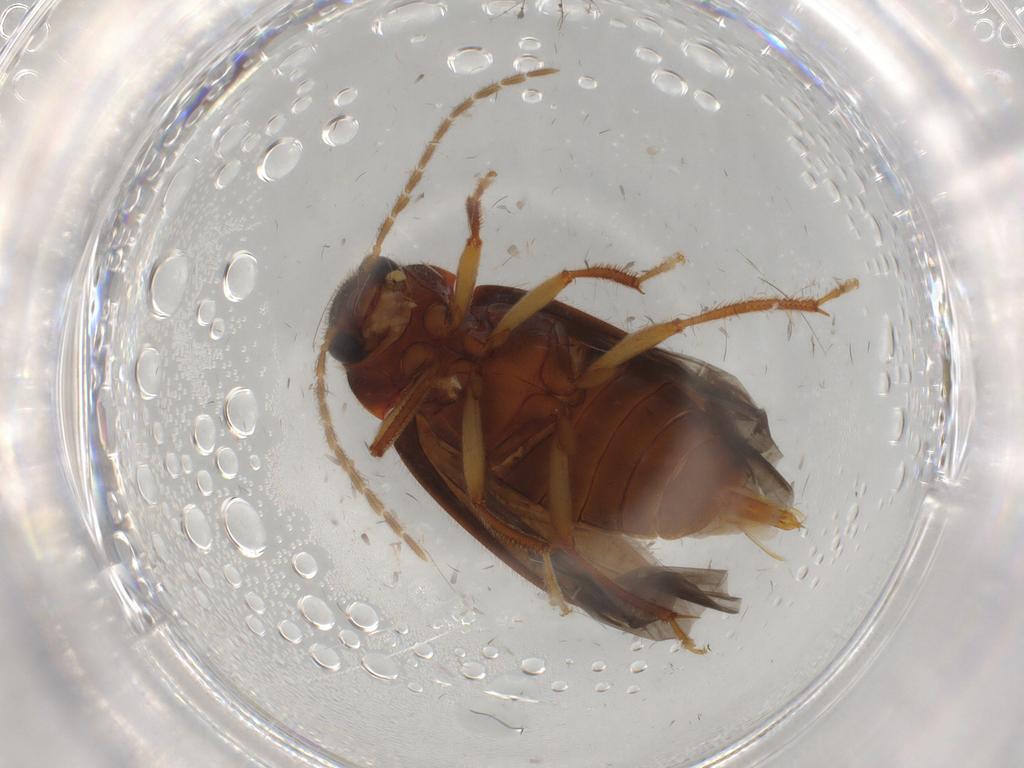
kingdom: Animalia
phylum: Arthropoda
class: Insecta
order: Coleoptera
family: Ptilodactylidae
